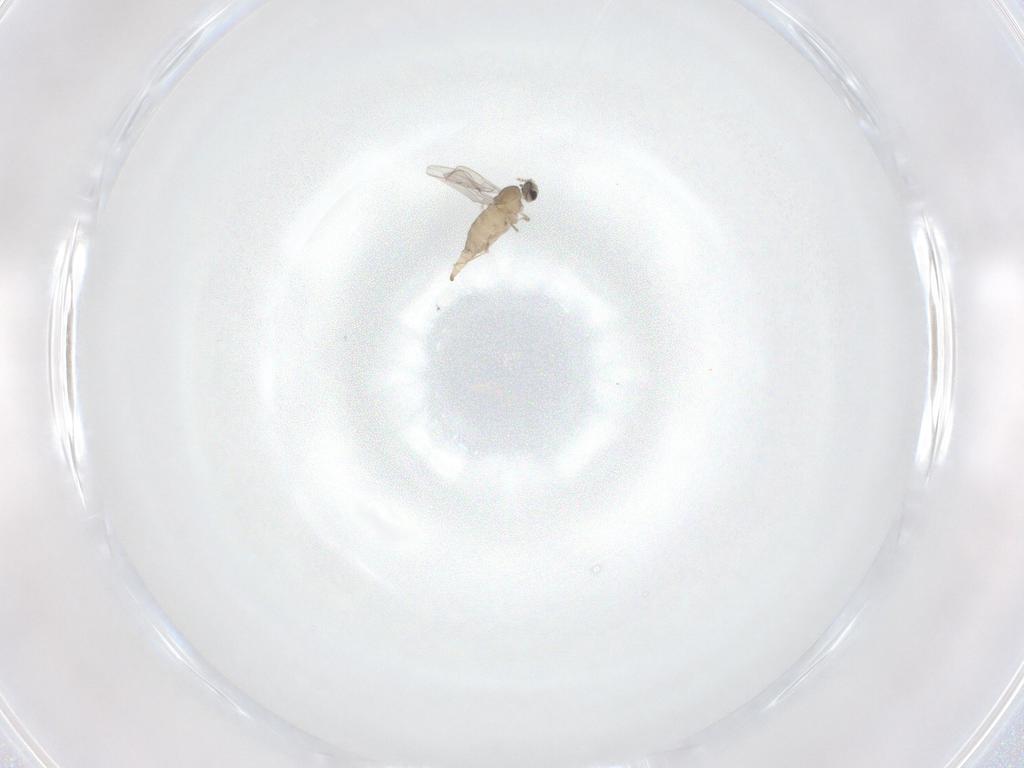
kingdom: Animalia
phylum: Arthropoda
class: Insecta
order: Diptera
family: Cecidomyiidae
